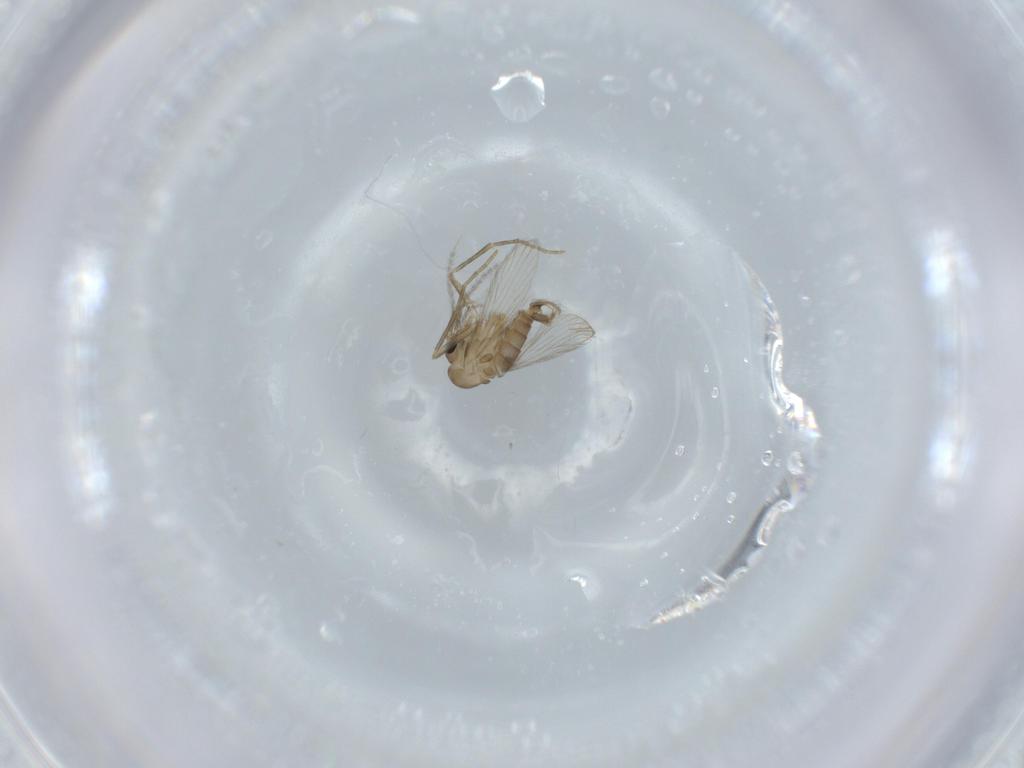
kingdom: Animalia
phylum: Arthropoda
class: Insecta
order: Diptera
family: Psychodidae
